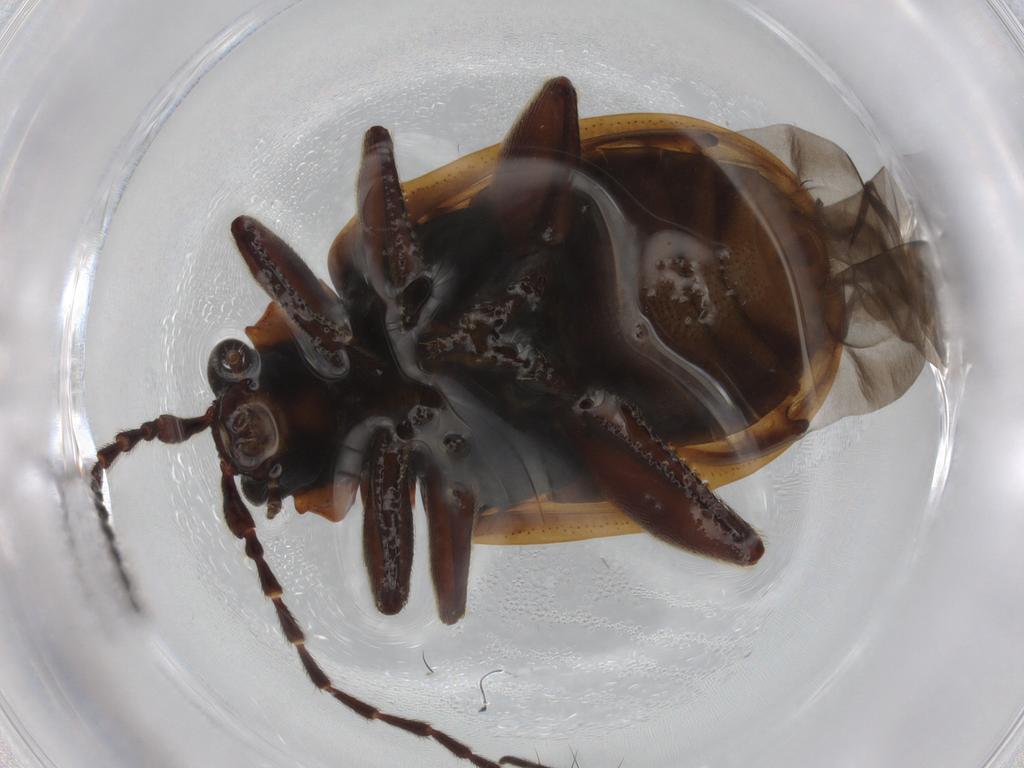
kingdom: Animalia
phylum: Arthropoda
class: Insecta
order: Coleoptera
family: Chrysomelidae
